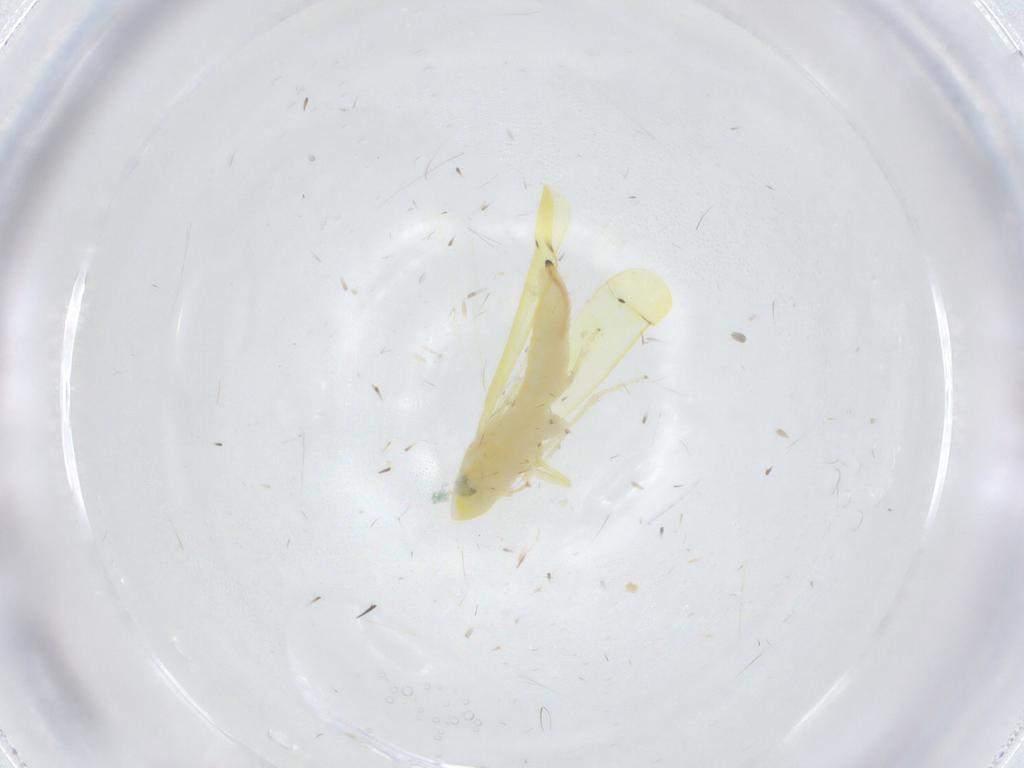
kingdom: Animalia
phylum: Arthropoda
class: Insecta
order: Hemiptera
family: Cicadellidae
